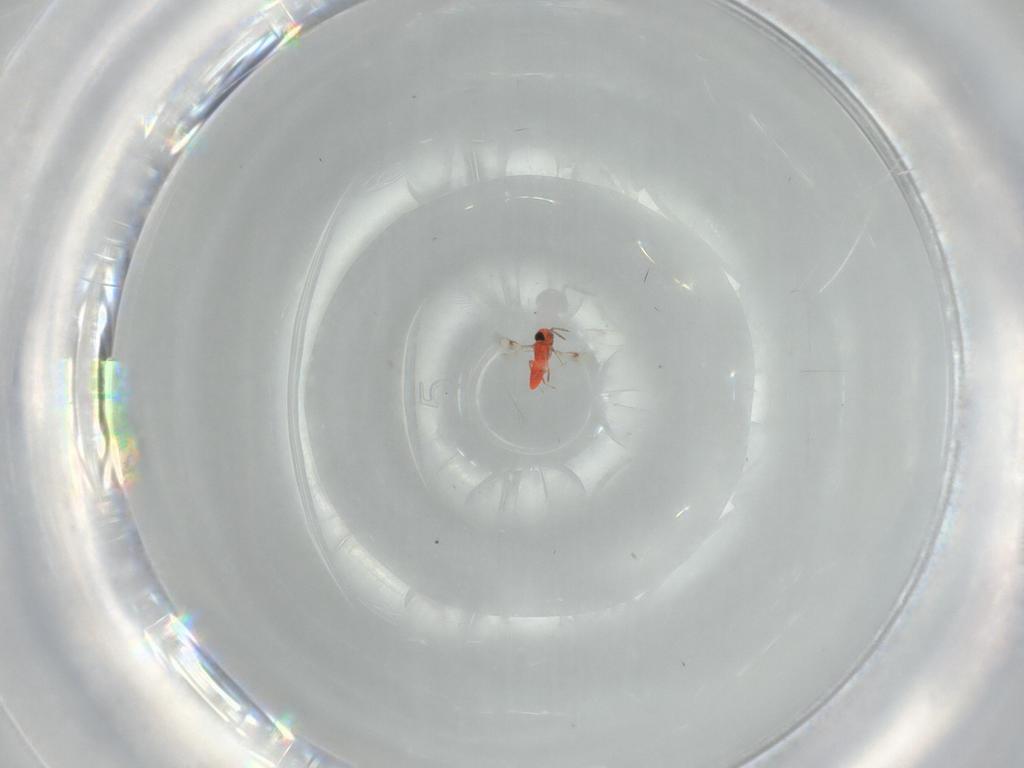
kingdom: Animalia
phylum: Arthropoda
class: Insecta
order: Hymenoptera
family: Trichogrammatidae
